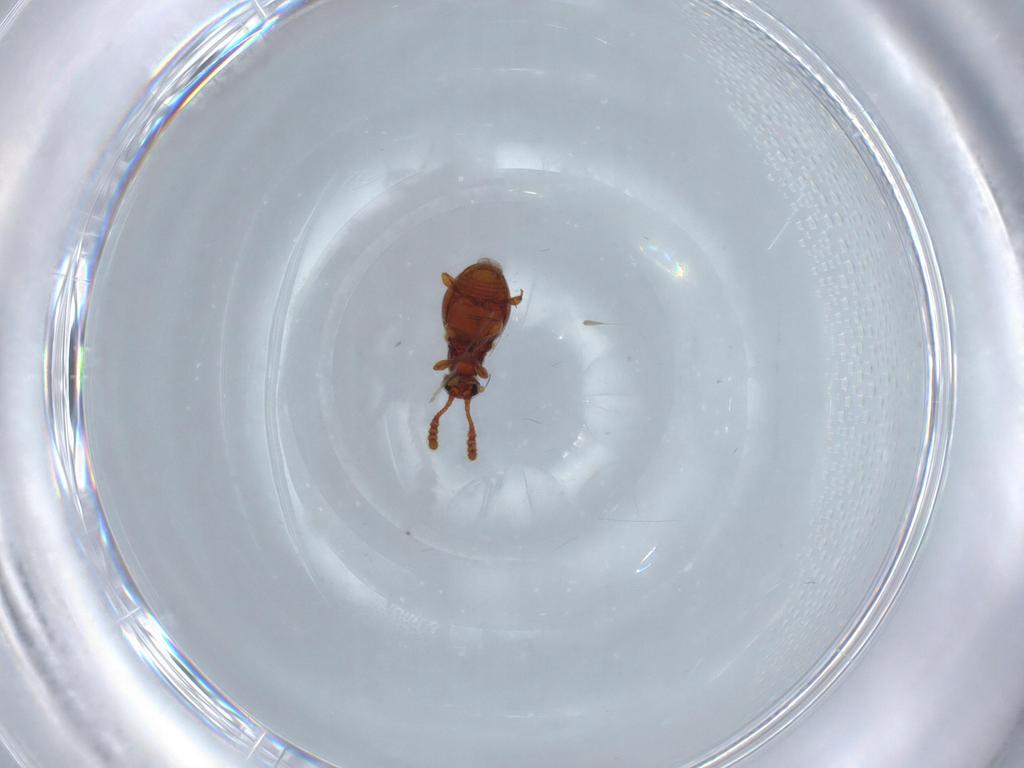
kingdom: Animalia
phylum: Arthropoda
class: Insecta
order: Coleoptera
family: Staphylinidae
